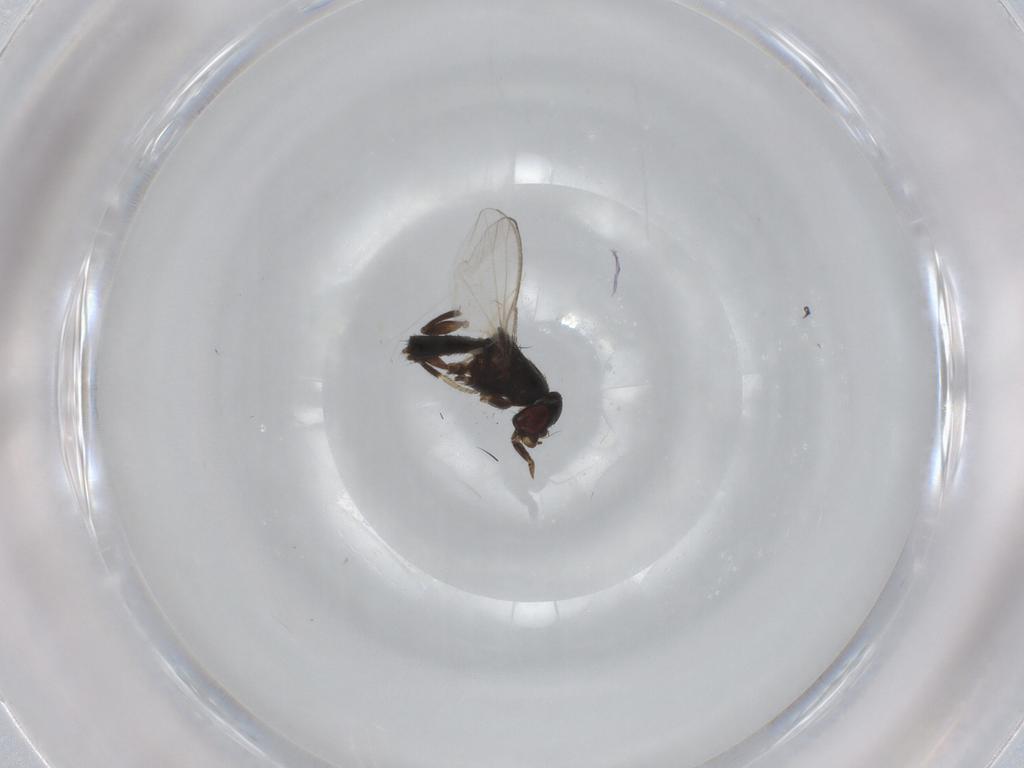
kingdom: Animalia
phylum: Arthropoda
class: Insecta
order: Diptera
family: Milichiidae
